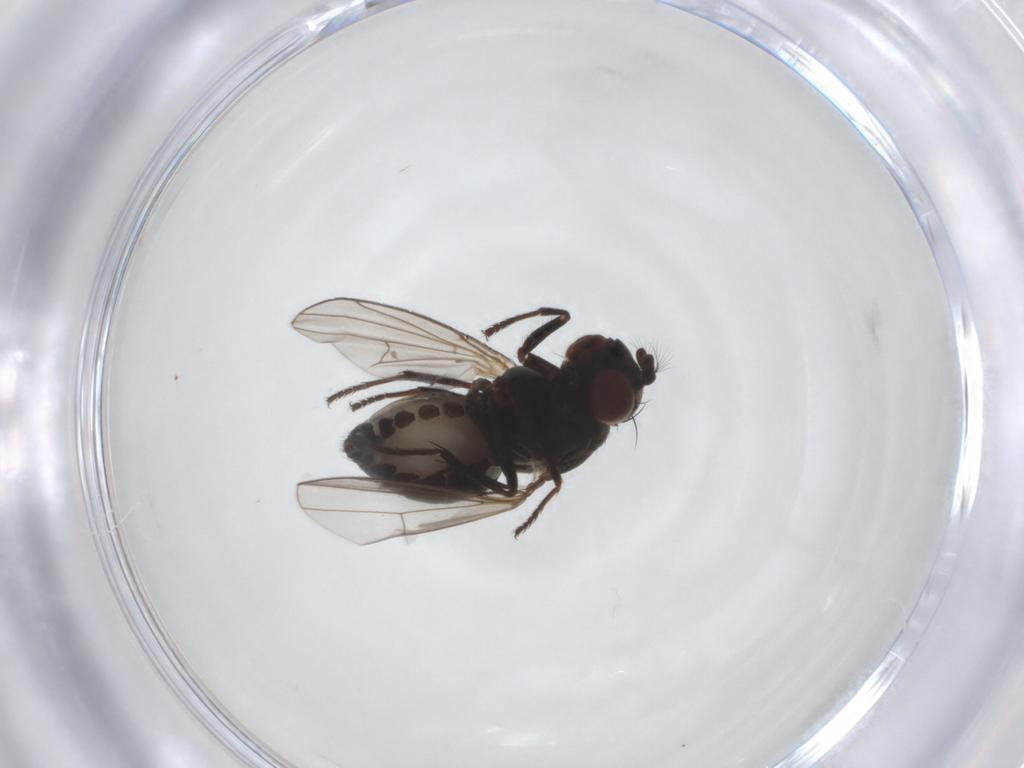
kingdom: Animalia
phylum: Arthropoda
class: Insecta
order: Diptera
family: Ephydridae
